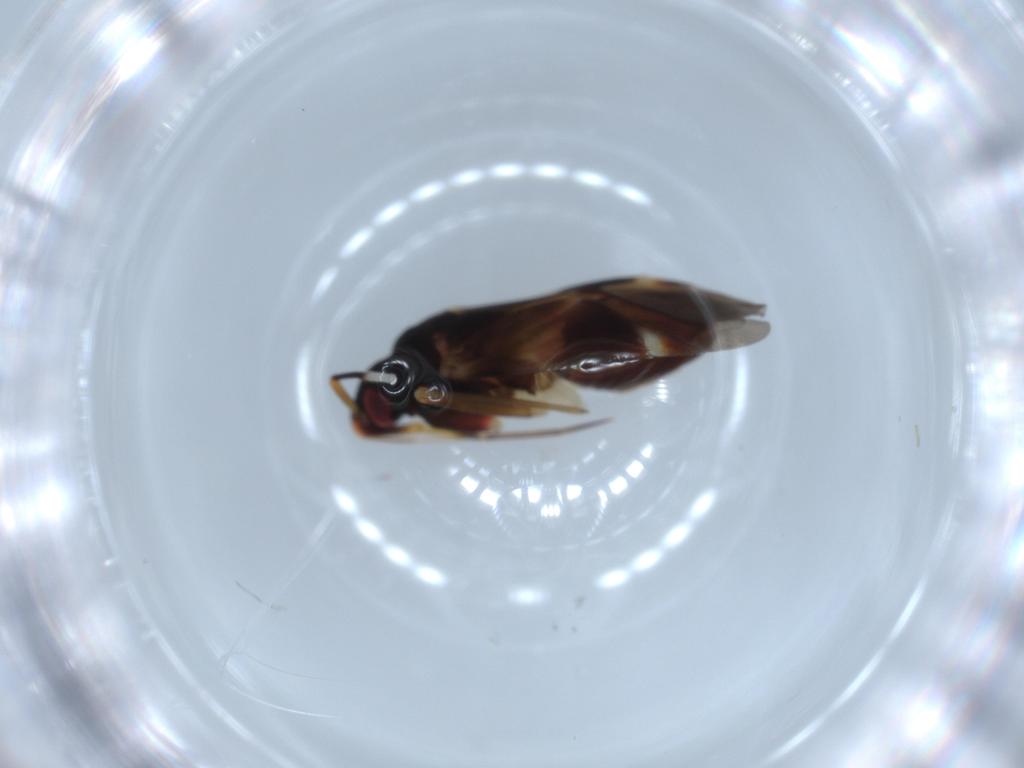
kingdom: Animalia
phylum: Arthropoda
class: Insecta
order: Hemiptera
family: Miridae
